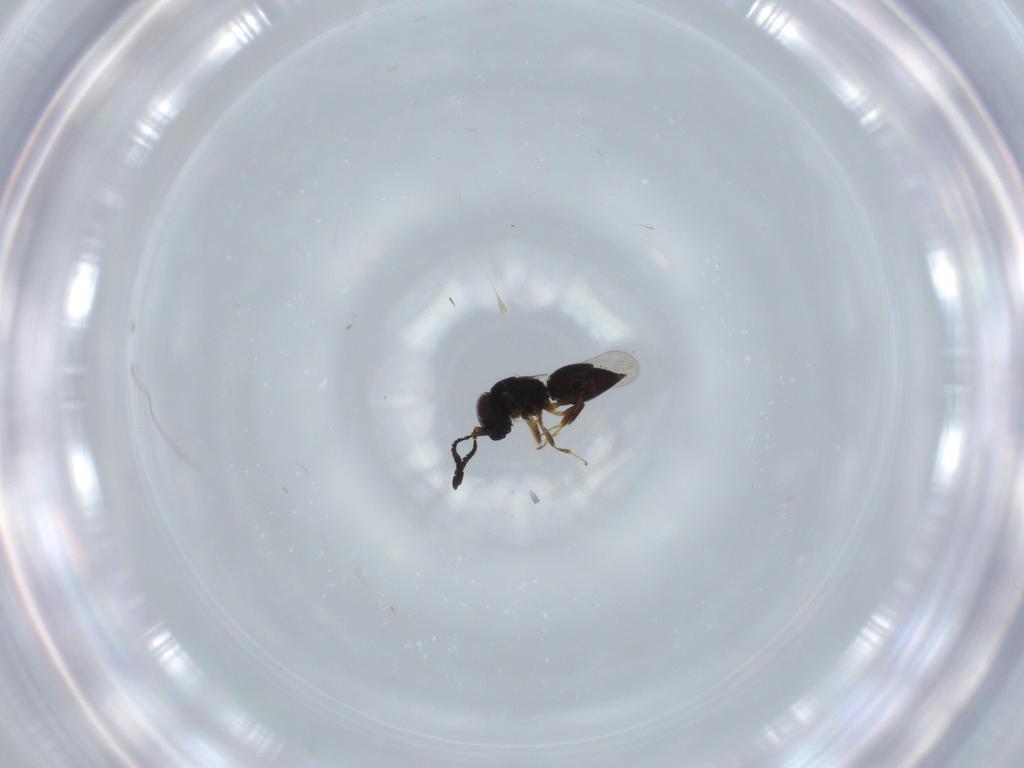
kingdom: Animalia
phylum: Arthropoda
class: Insecta
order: Hymenoptera
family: Ceraphronidae
